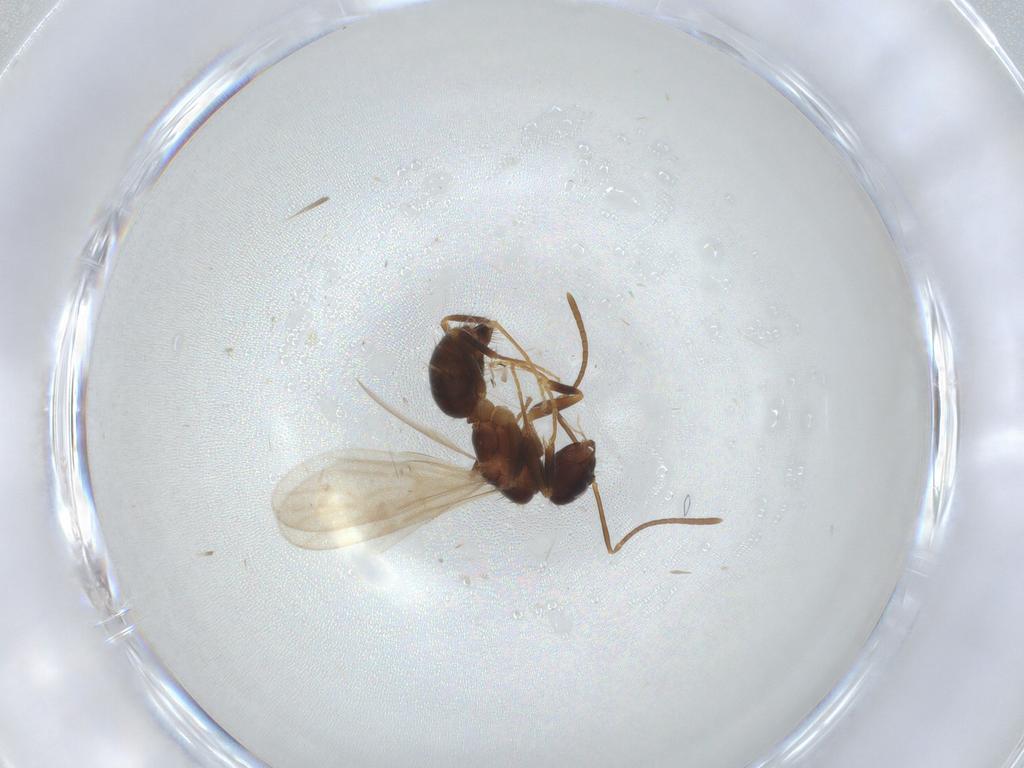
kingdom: Animalia
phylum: Arthropoda
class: Insecta
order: Hymenoptera
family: Formicidae
